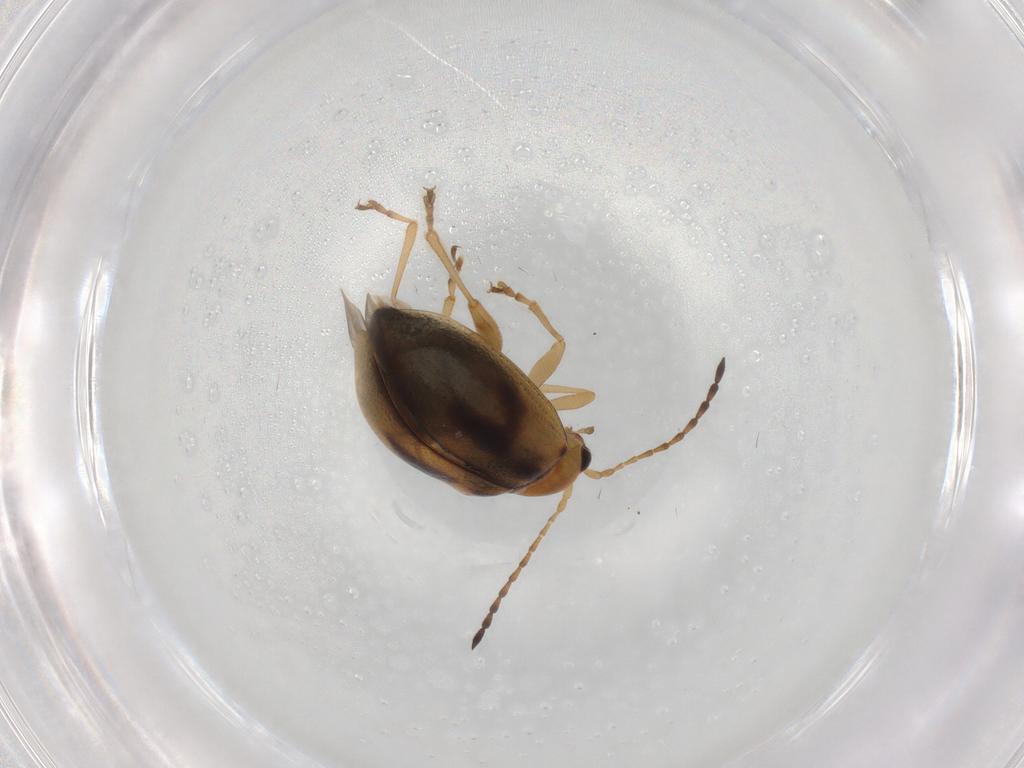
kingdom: Animalia
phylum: Arthropoda
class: Insecta
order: Coleoptera
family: Chrysomelidae
